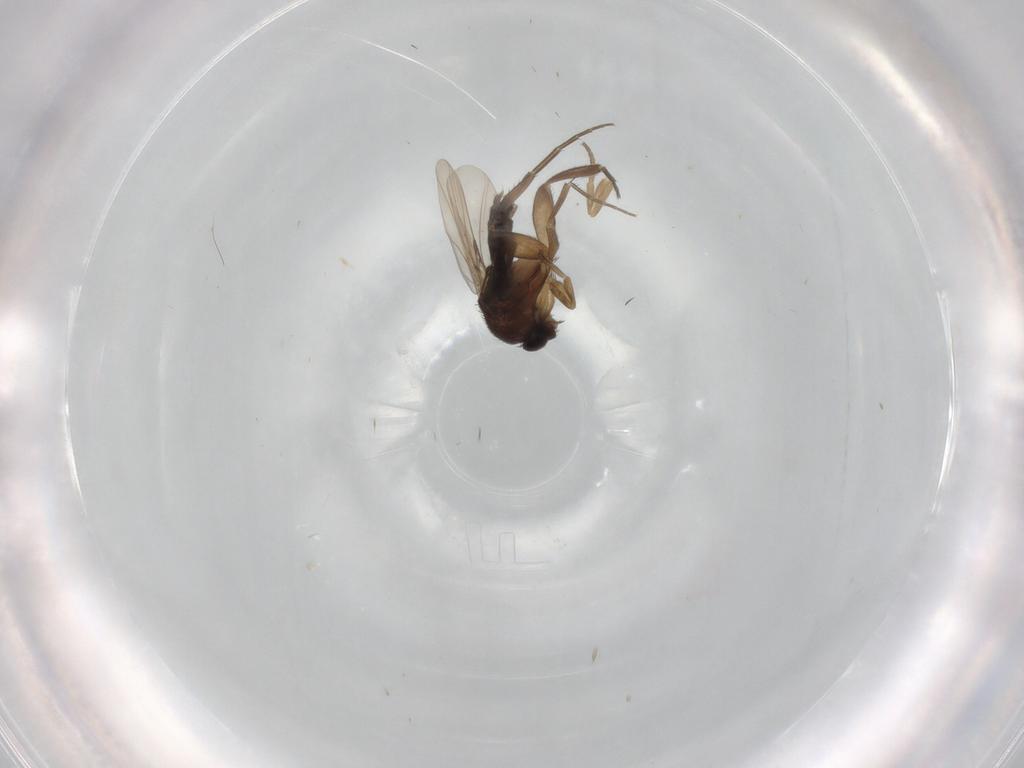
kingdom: Animalia
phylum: Arthropoda
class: Insecta
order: Diptera
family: Phoridae
